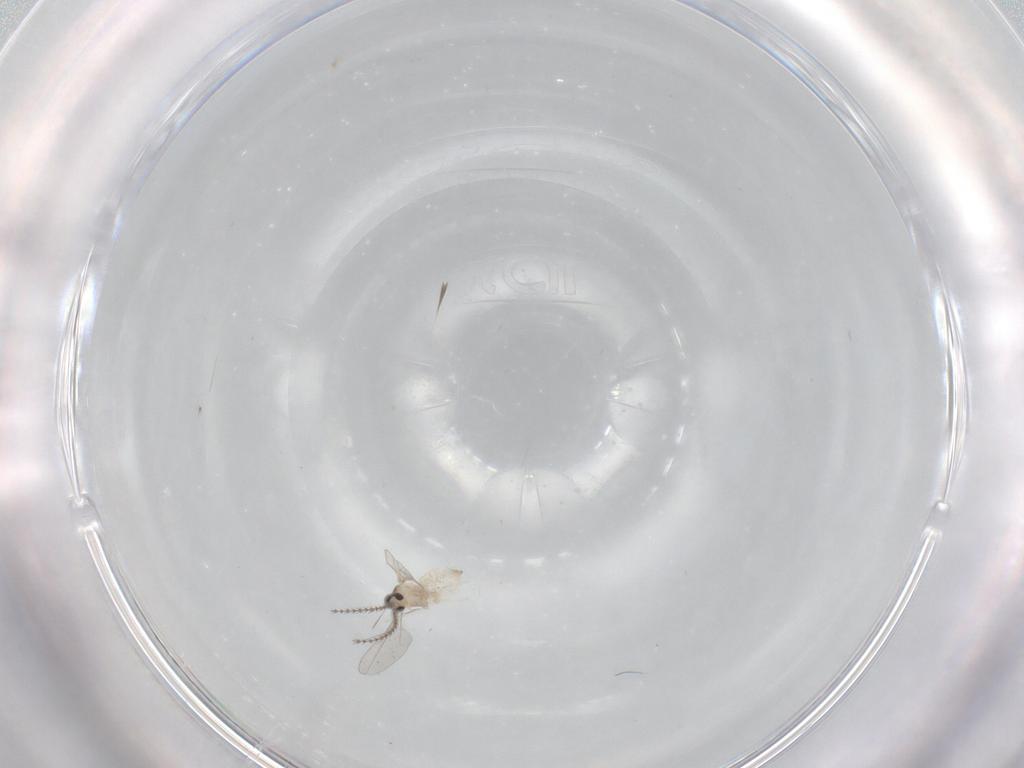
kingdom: Animalia
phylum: Arthropoda
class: Insecta
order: Diptera
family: Cecidomyiidae
